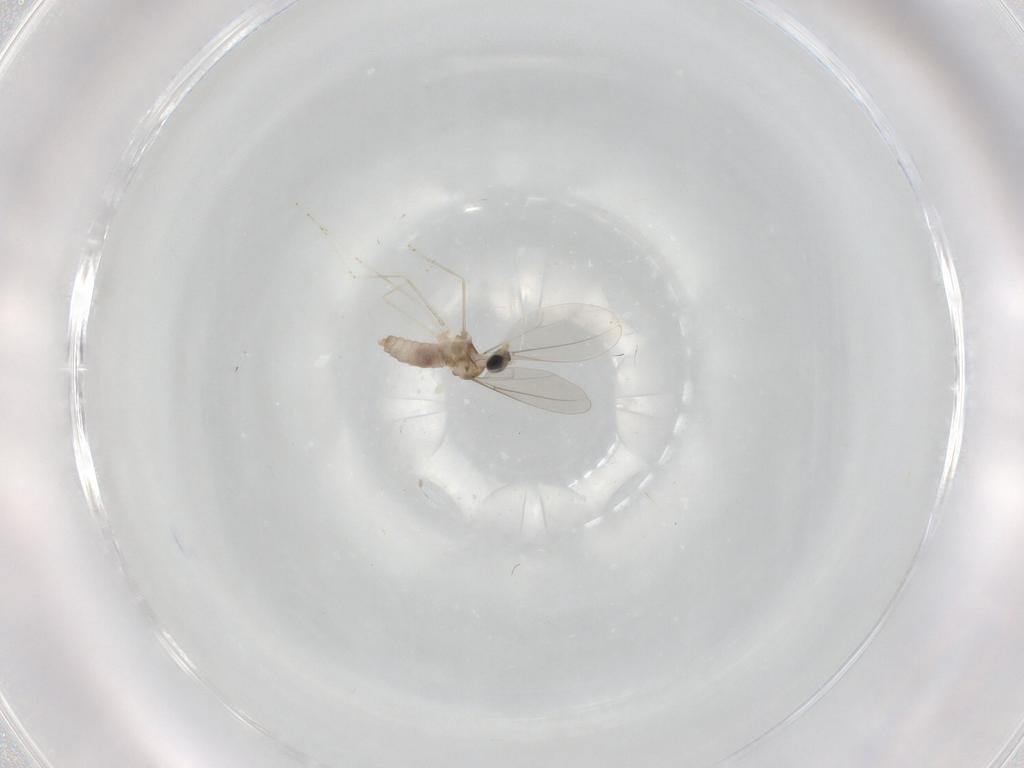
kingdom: Animalia
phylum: Arthropoda
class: Insecta
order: Diptera
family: Cecidomyiidae
